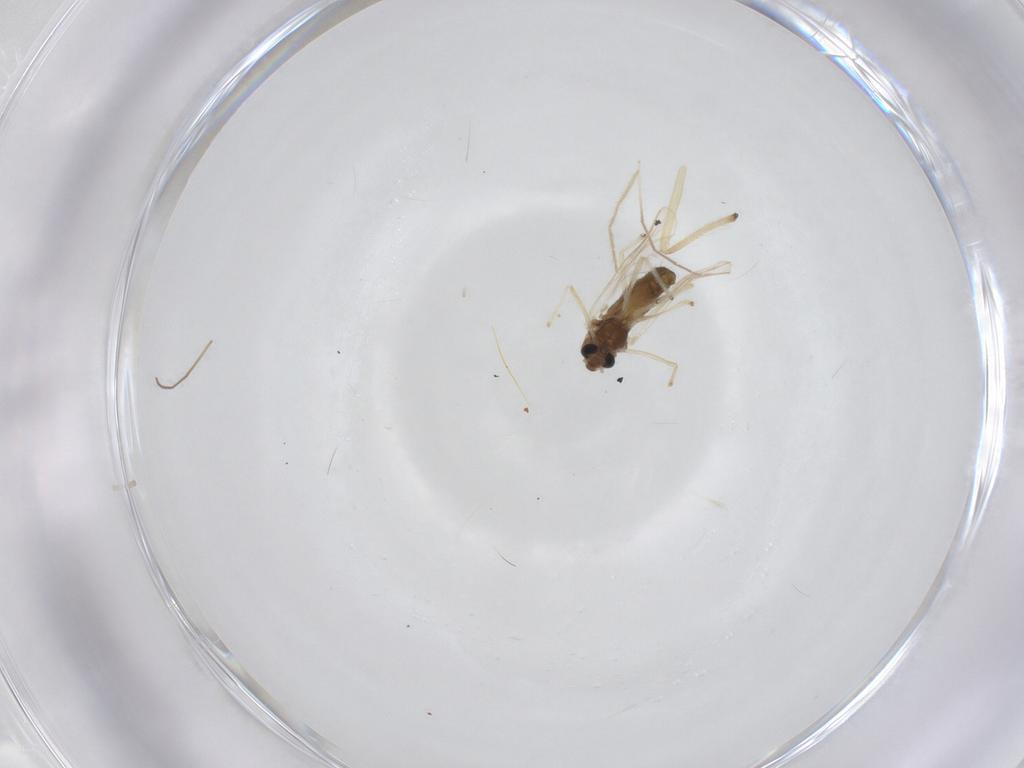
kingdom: Animalia
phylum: Arthropoda
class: Insecta
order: Diptera
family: Chironomidae
